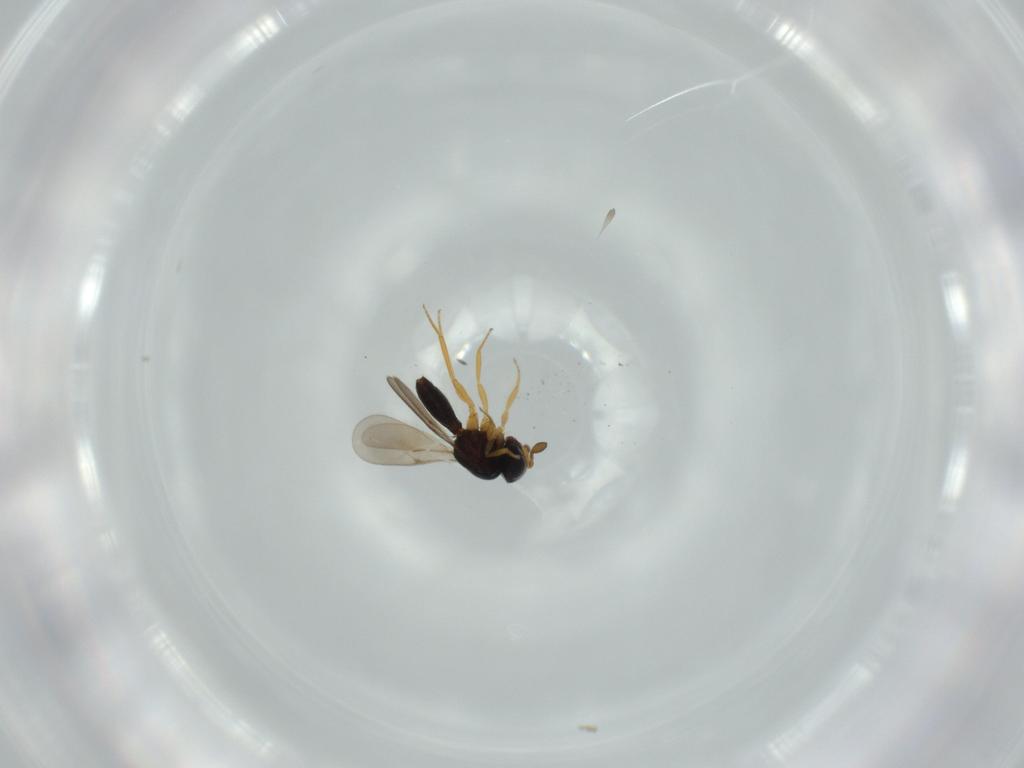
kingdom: Animalia
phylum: Arthropoda
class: Insecta
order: Hymenoptera
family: Scelionidae
